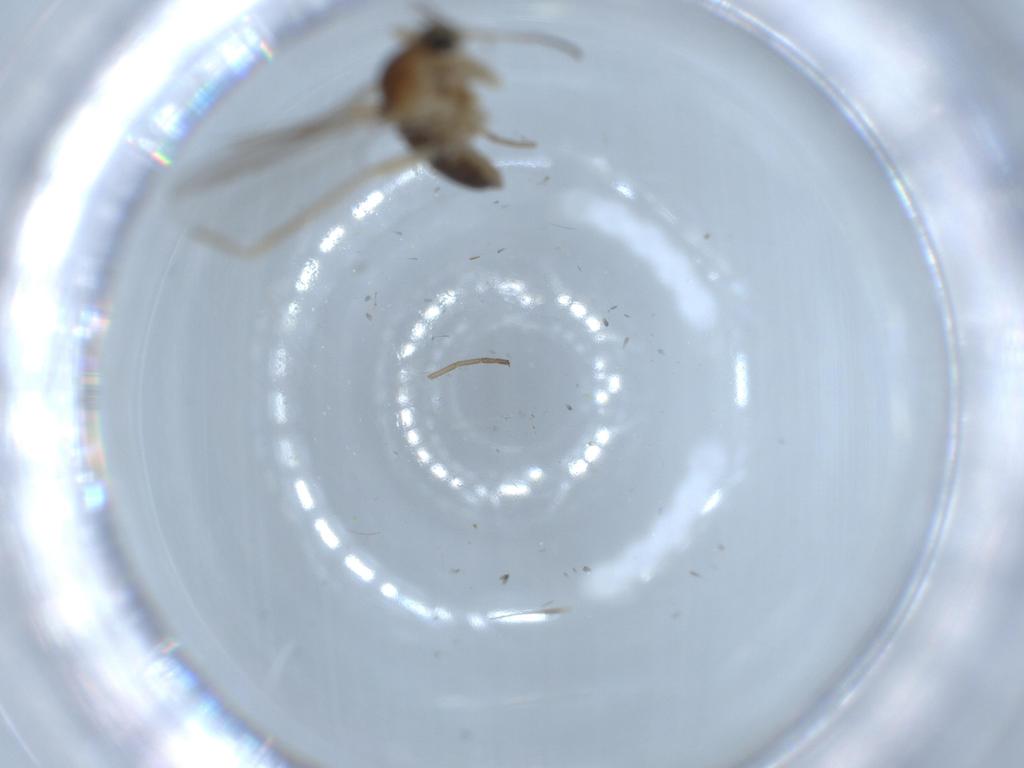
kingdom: Animalia
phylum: Arthropoda
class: Insecta
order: Diptera
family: Cecidomyiidae
